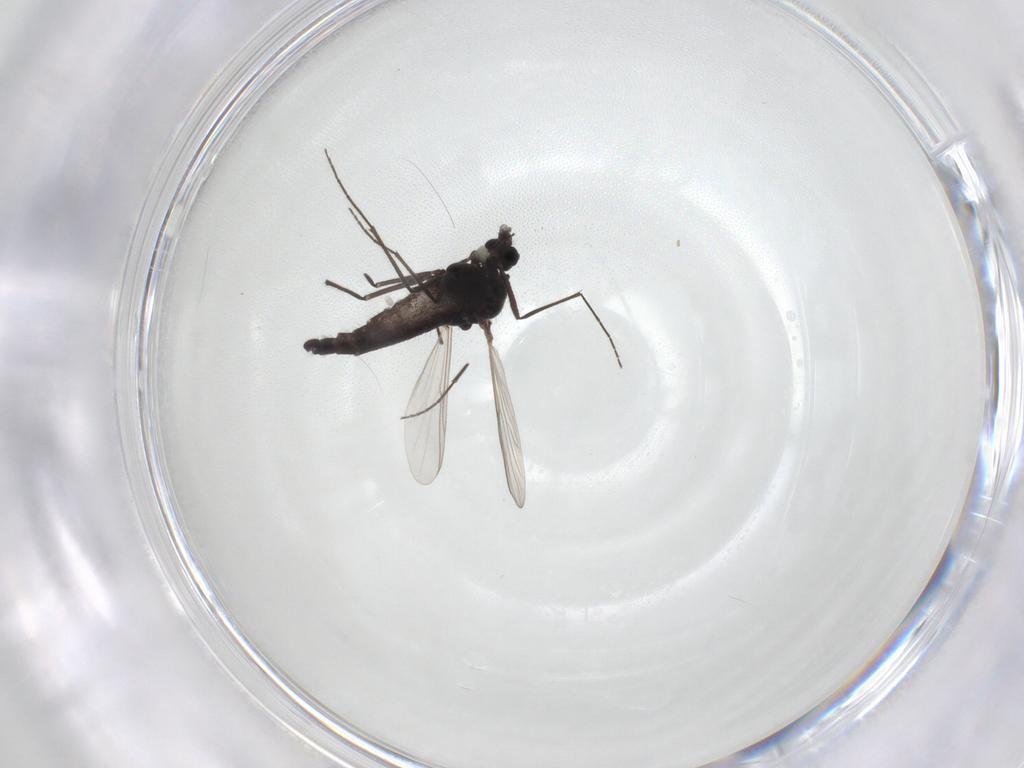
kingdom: Animalia
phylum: Arthropoda
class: Insecta
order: Diptera
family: Chironomidae
